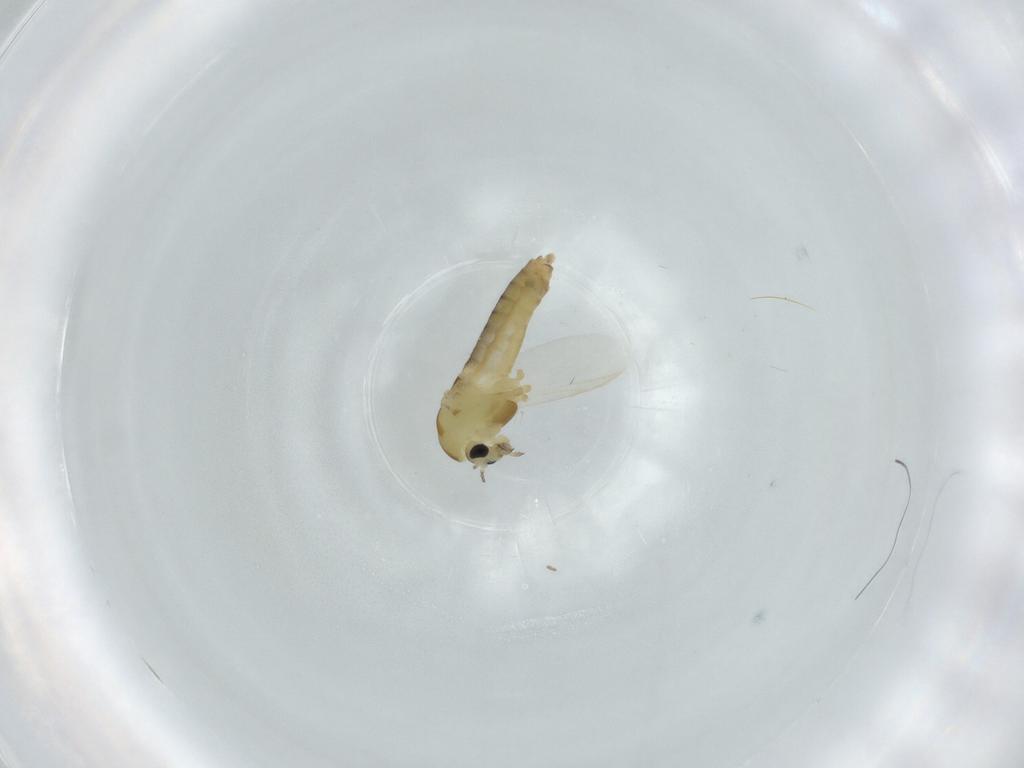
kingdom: Animalia
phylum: Arthropoda
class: Insecta
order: Diptera
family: Chironomidae
